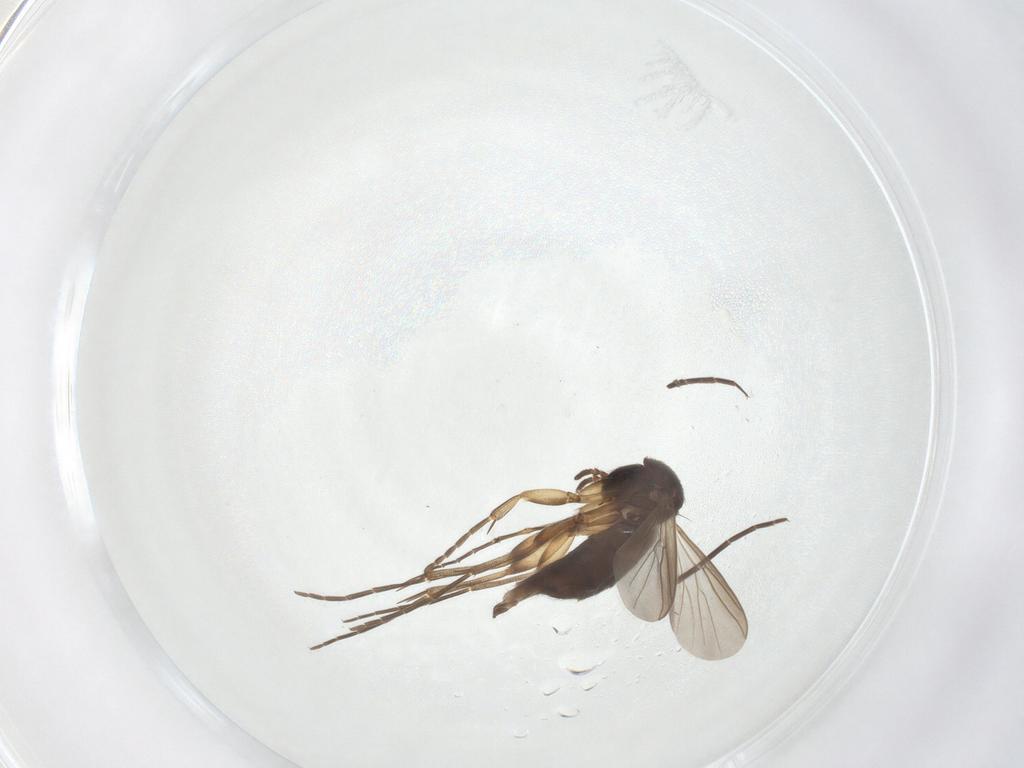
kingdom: Animalia
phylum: Arthropoda
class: Insecta
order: Diptera
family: Mycetophilidae
